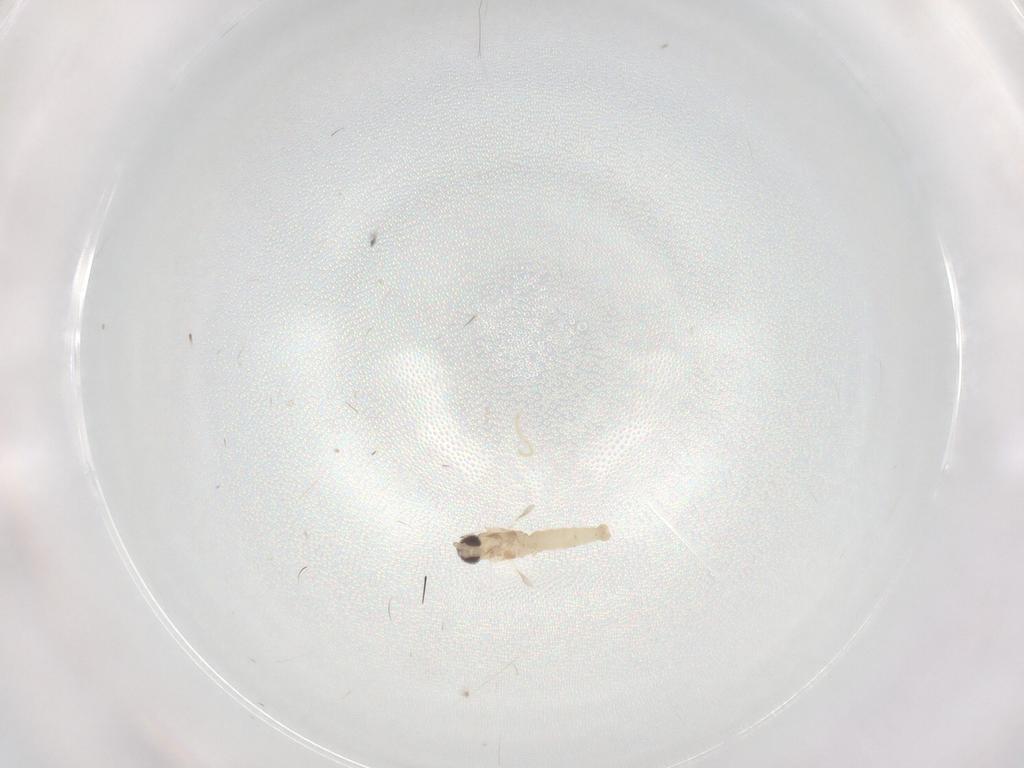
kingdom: Animalia
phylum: Arthropoda
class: Insecta
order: Diptera
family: Cecidomyiidae
